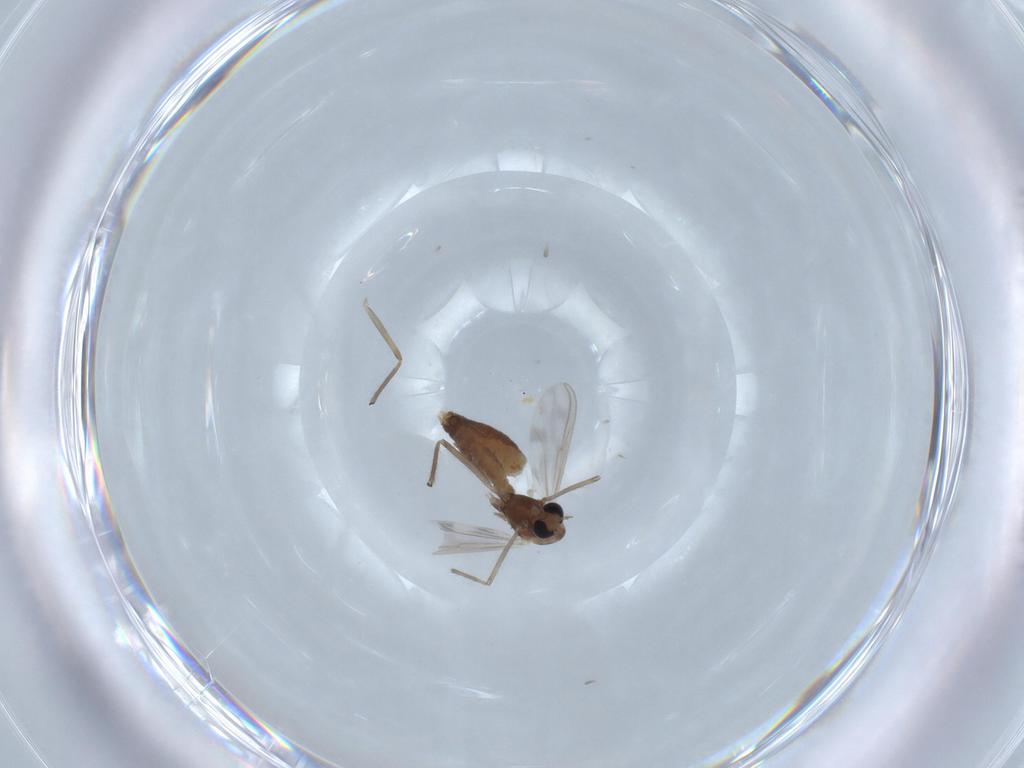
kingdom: Animalia
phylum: Arthropoda
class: Insecta
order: Diptera
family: Chironomidae
